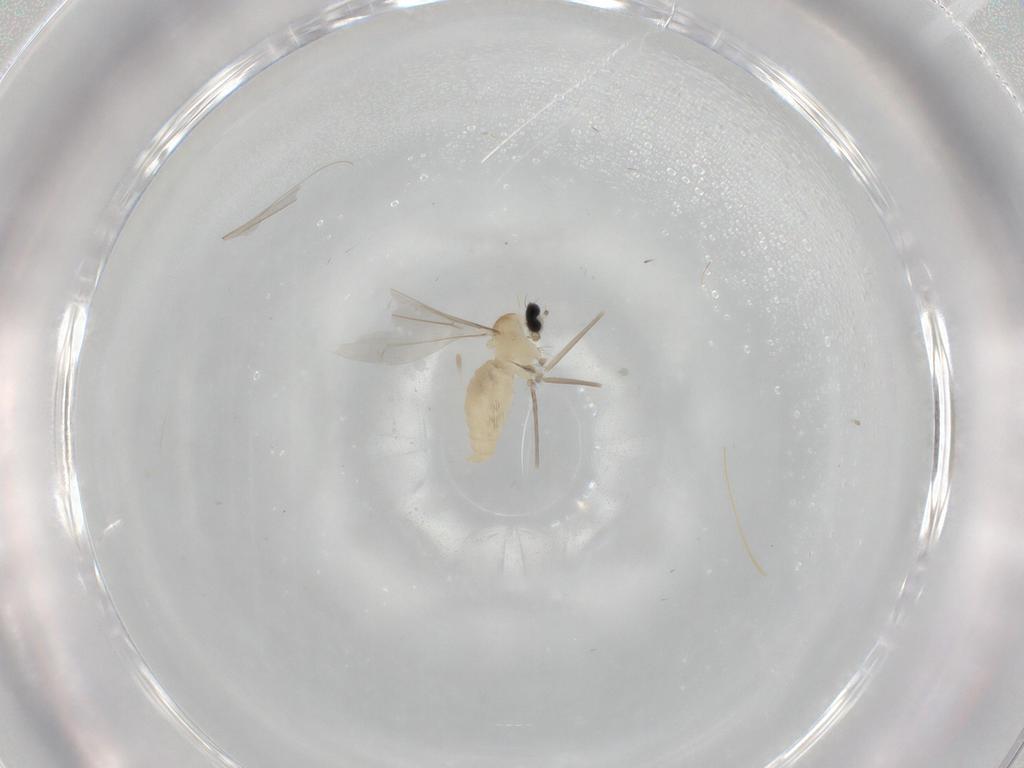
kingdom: Animalia
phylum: Arthropoda
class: Insecta
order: Diptera
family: Cecidomyiidae
